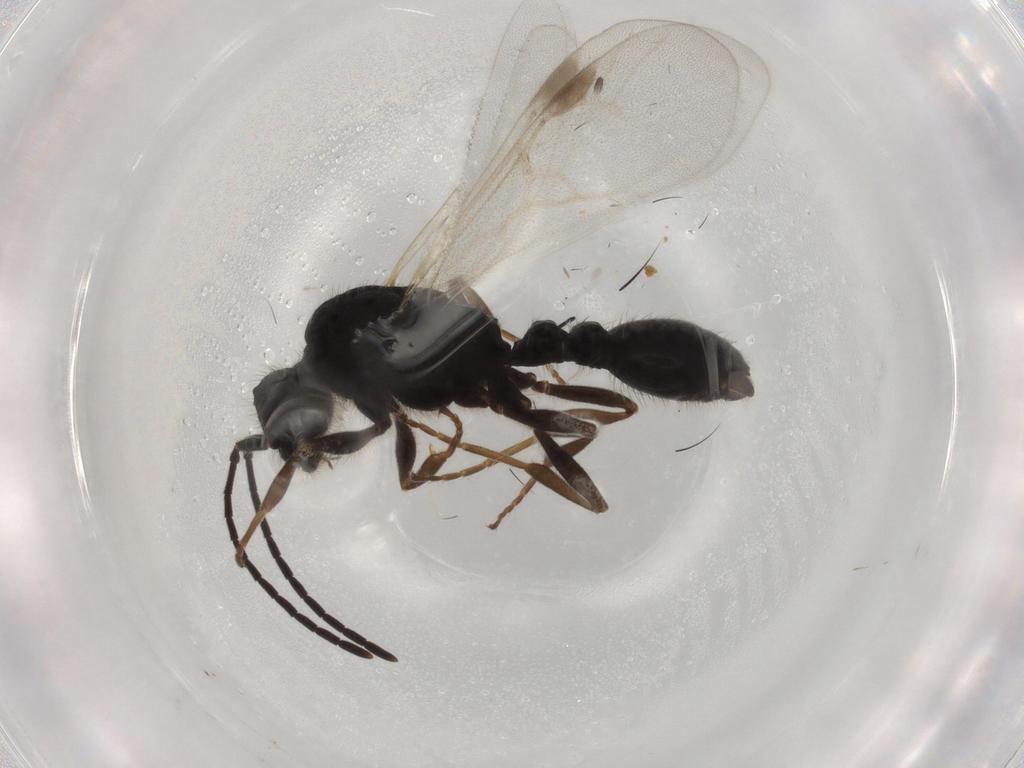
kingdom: Animalia
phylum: Arthropoda
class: Insecta
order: Hymenoptera
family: Formicidae
